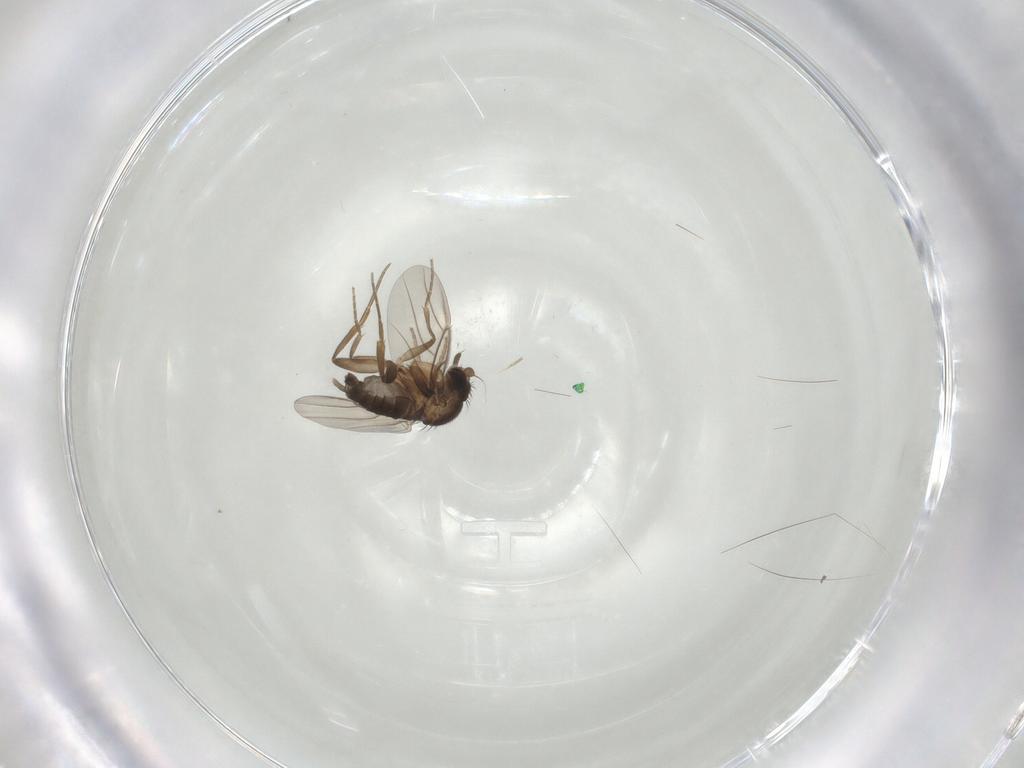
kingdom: Animalia
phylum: Arthropoda
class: Insecta
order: Diptera
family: Phoridae
